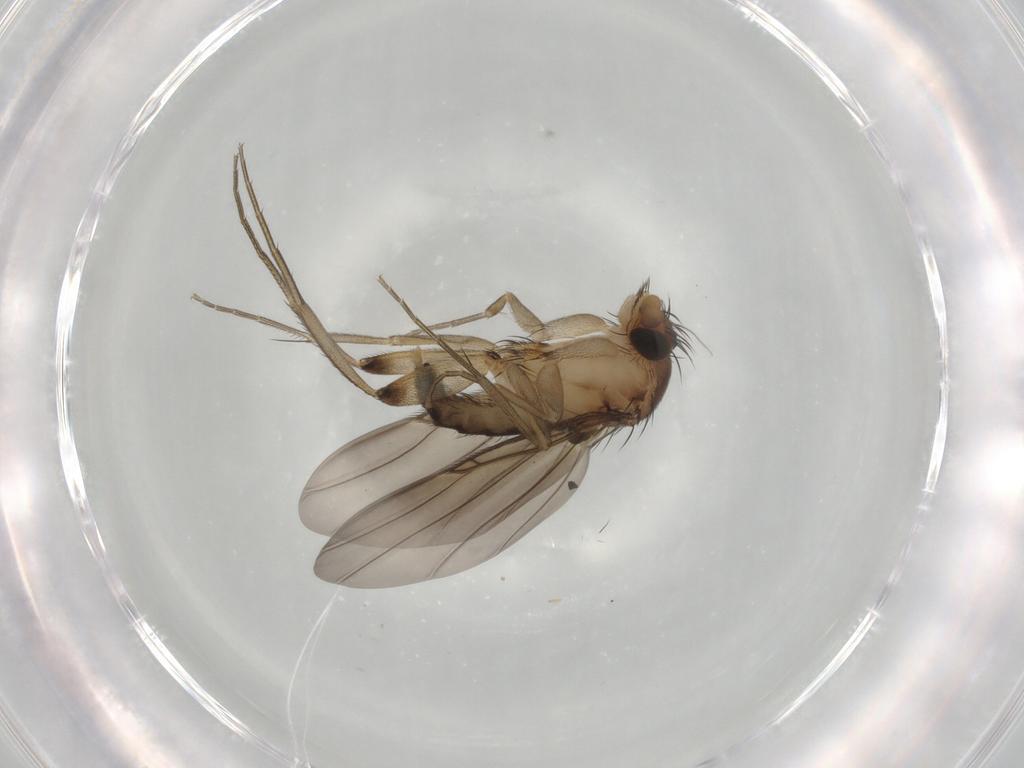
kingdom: Animalia
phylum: Arthropoda
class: Insecta
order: Diptera
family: Phoridae
